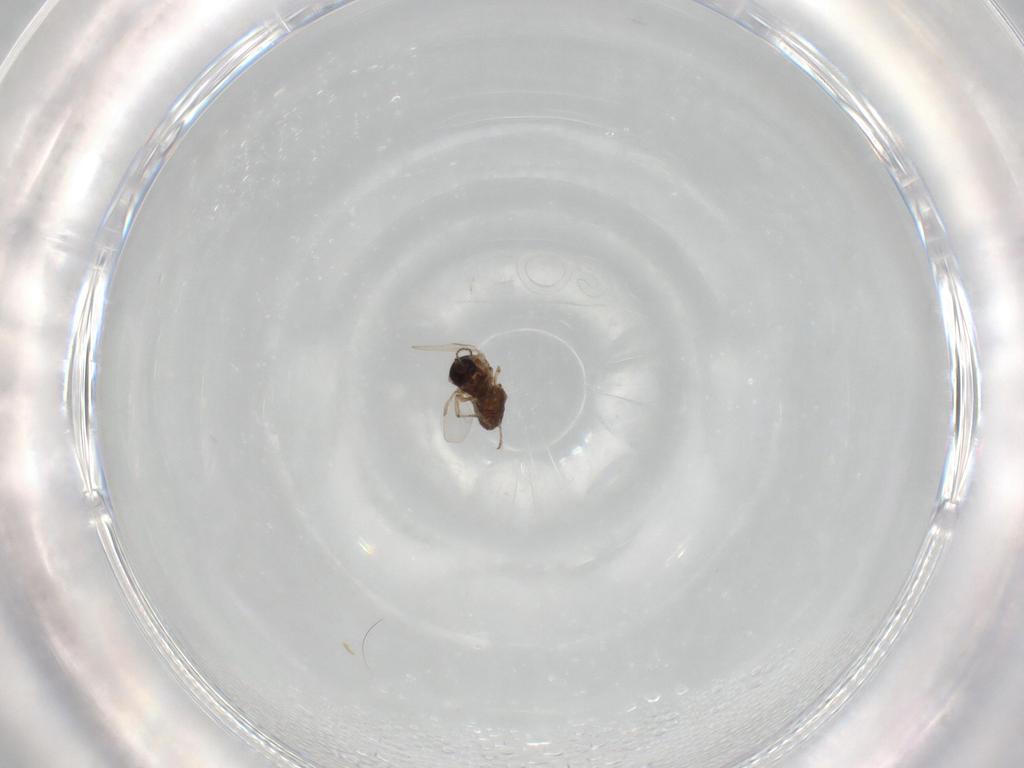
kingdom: Animalia
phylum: Arthropoda
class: Insecta
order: Diptera
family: Ceratopogonidae
